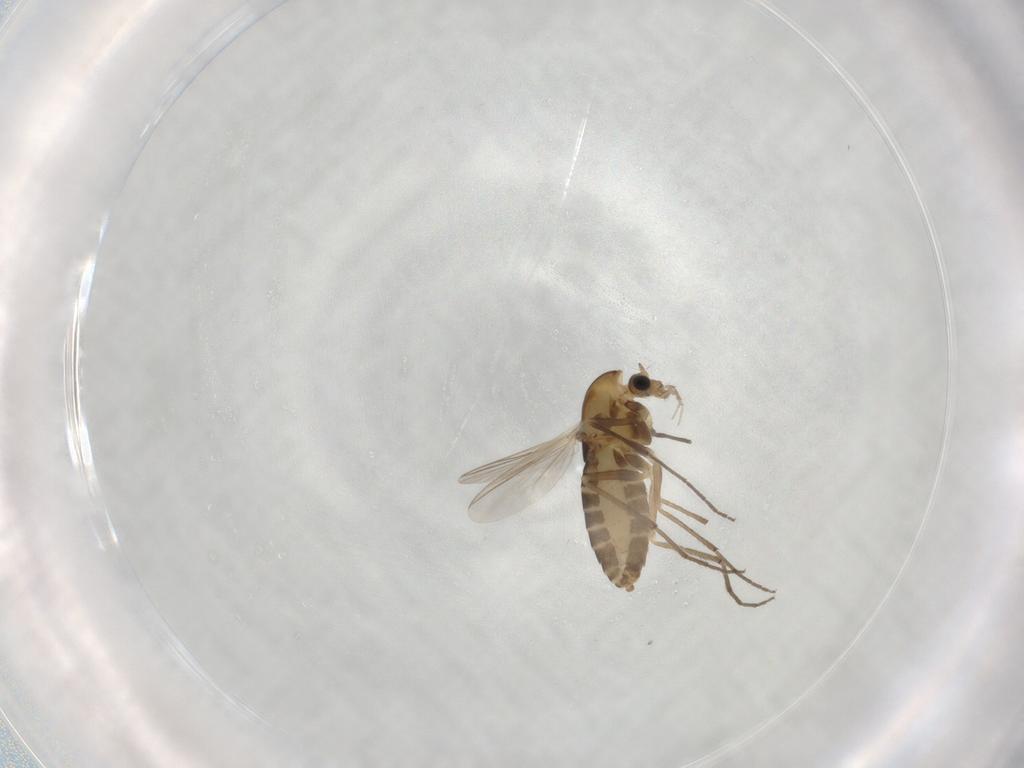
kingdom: Animalia
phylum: Arthropoda
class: Insecta
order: Diptera
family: Chironomidae
